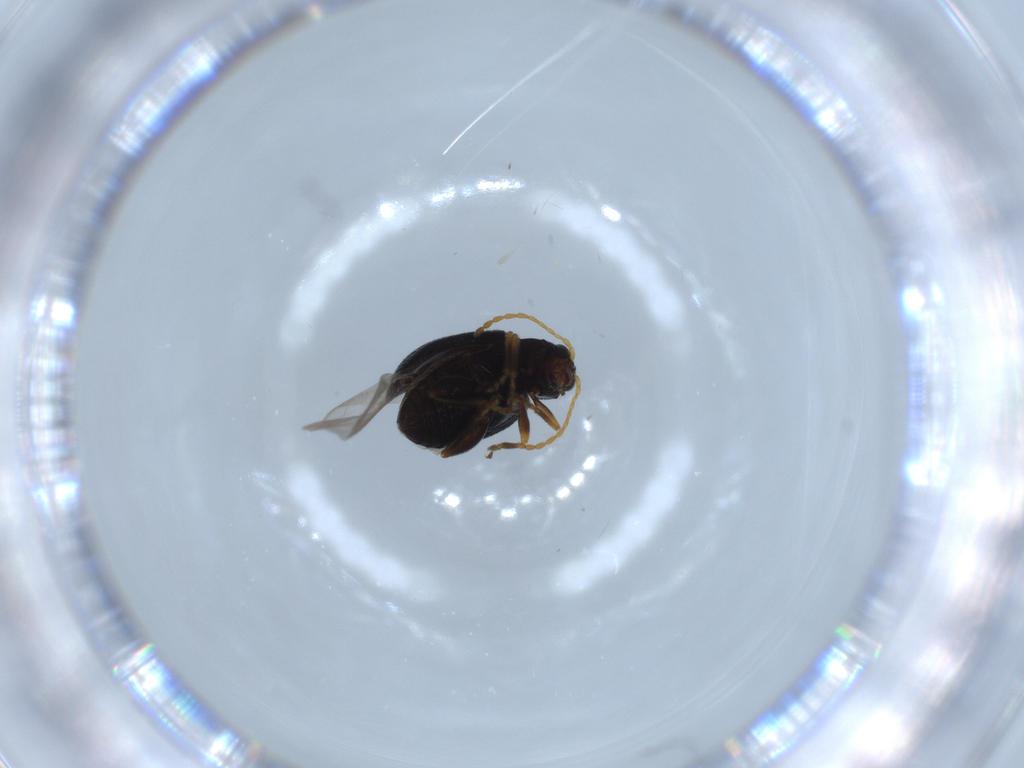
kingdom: Animalia
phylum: Arthropoda
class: Insecta
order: Coleoptera
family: Chrysomelidae
